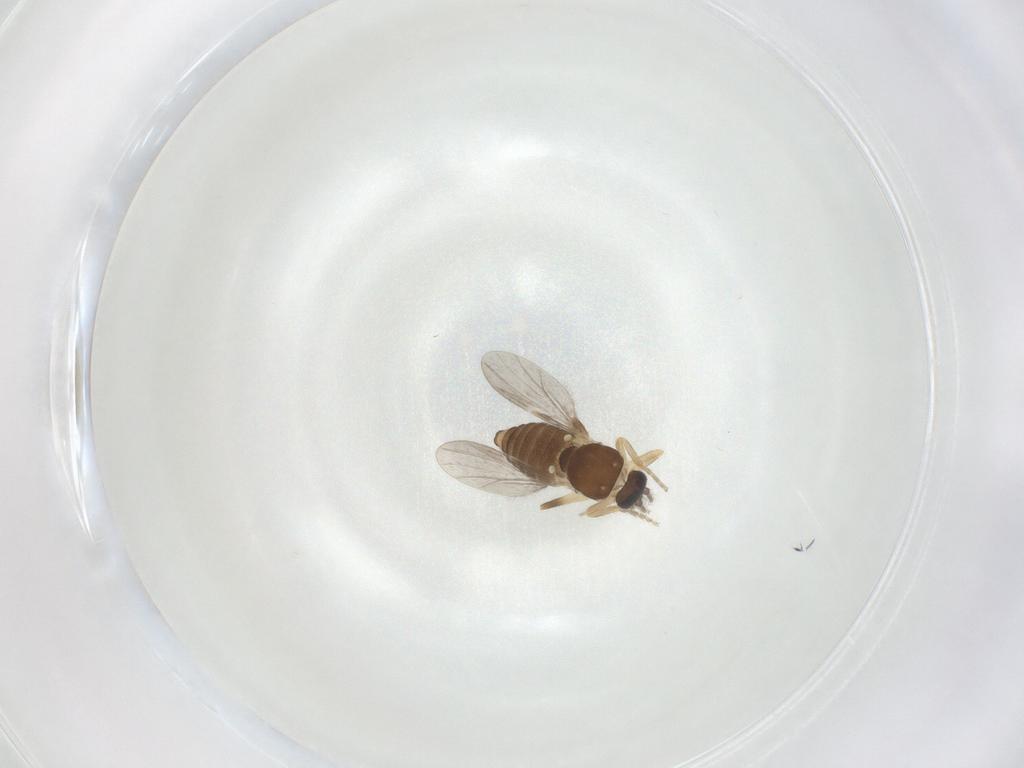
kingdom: Animalia
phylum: Arthropoda
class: Insecta
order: Diptera
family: Ceratopogonidae
